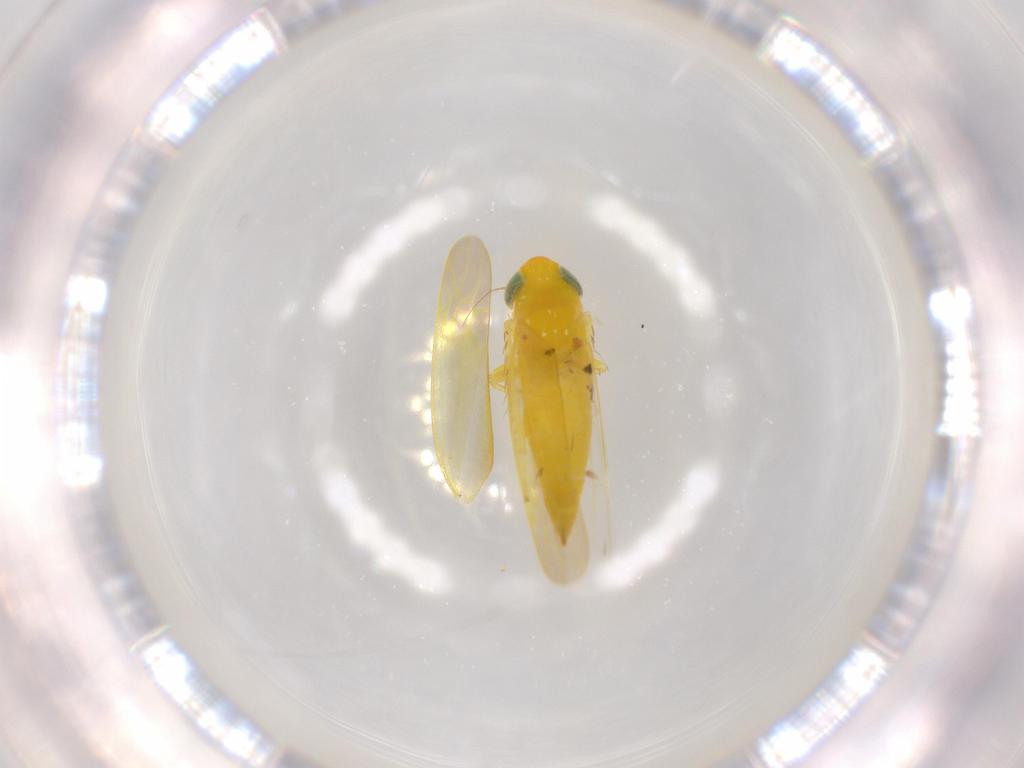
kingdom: Animalia
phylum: Arthropoda
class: Insecta
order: Hemiptera
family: Cicadellidae
